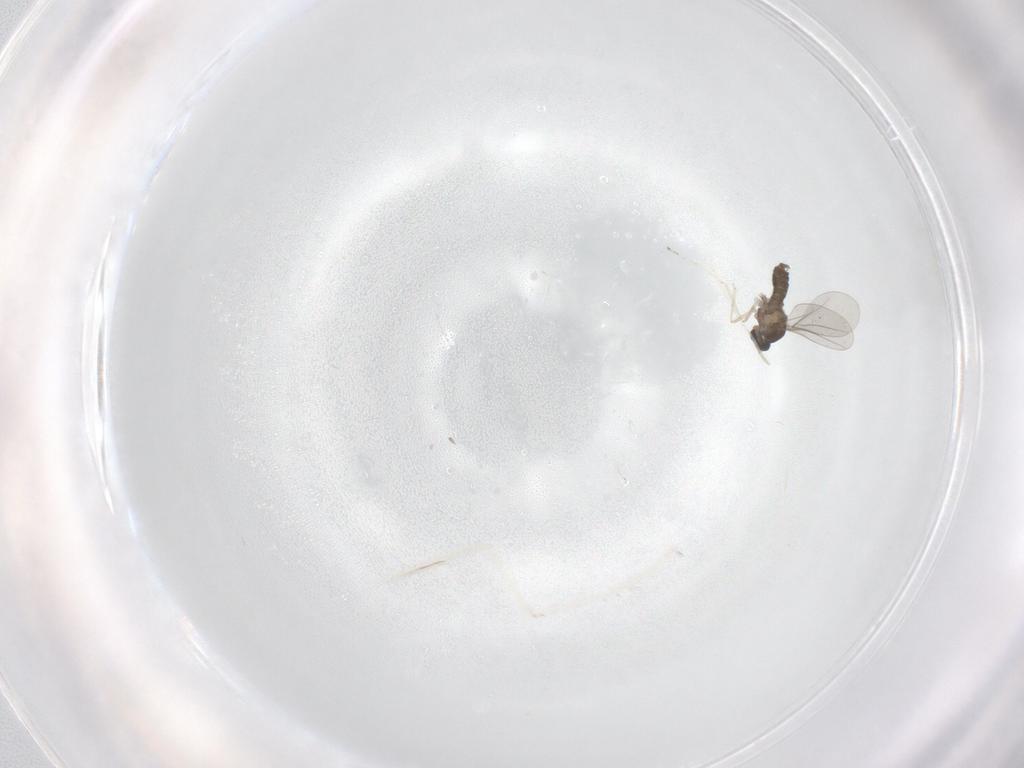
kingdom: Animalia
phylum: Arthropoda
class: Insecta
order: Diptera
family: Cecidomyiidae
